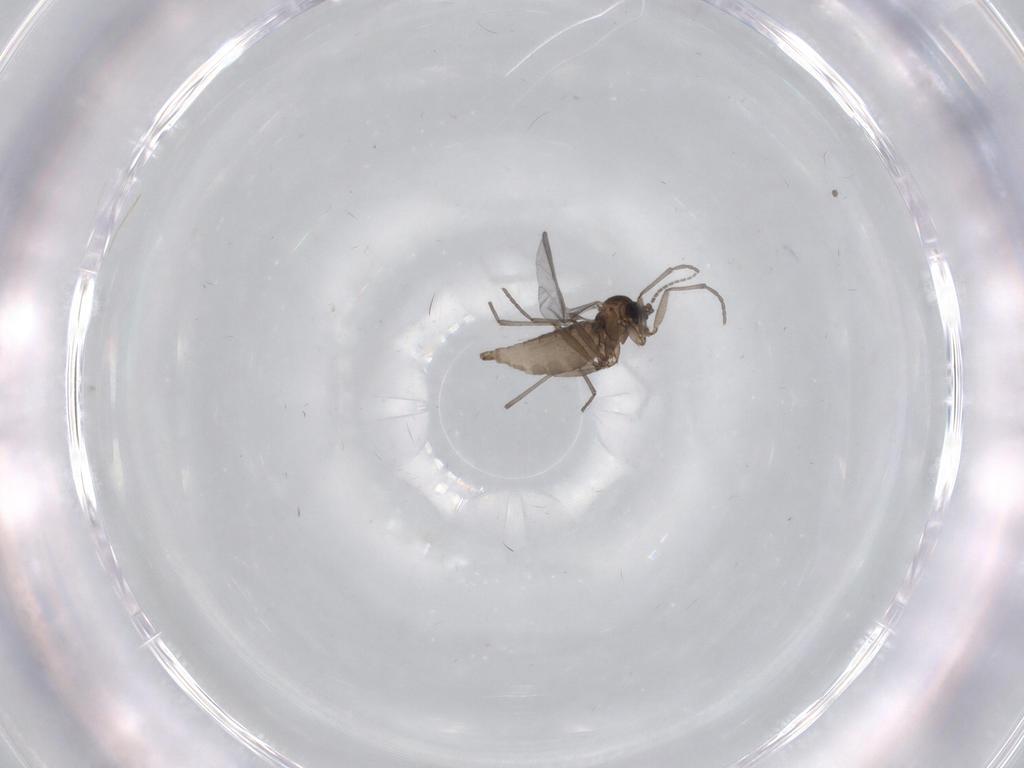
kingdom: Animalia
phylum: Arthropoda
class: Insecta
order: Diptera
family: Sciaridae
